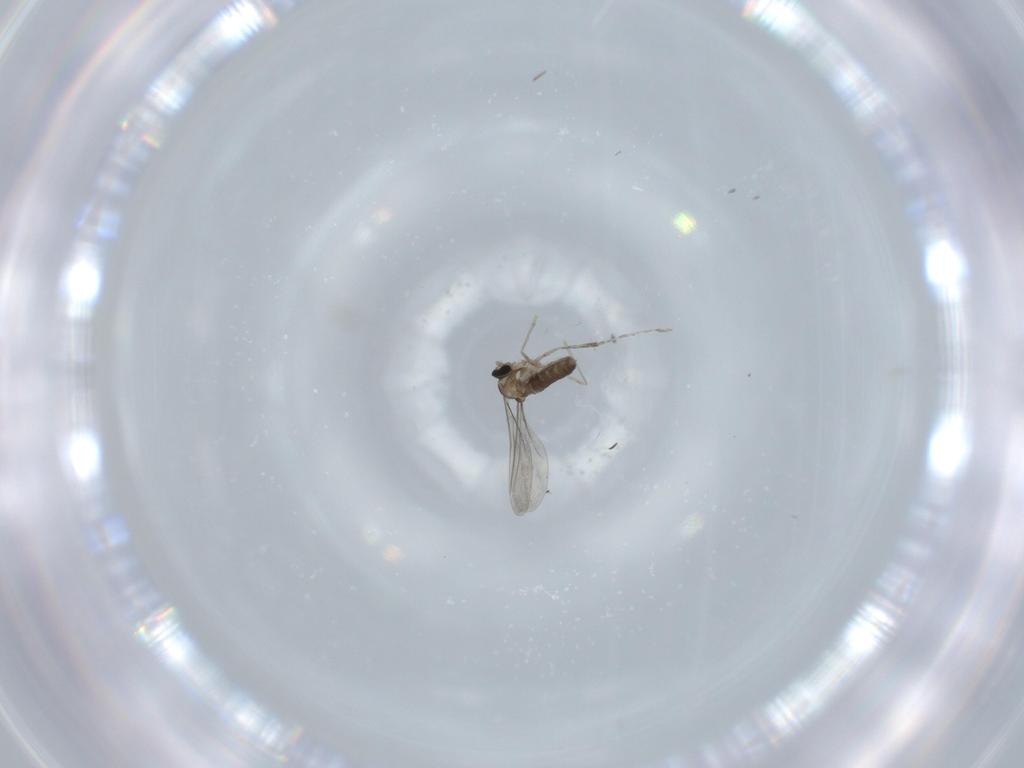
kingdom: Animalia
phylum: Arthropoda
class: Insecta
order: Diptera
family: Cecidomyiidae
